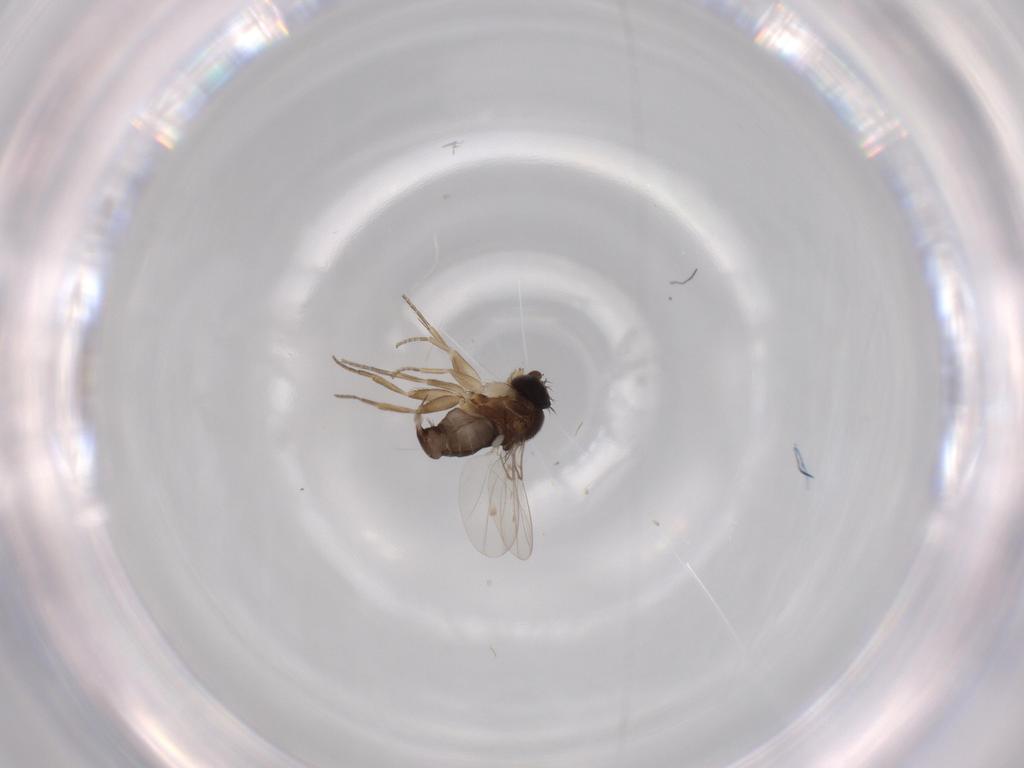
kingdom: Animalia
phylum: Arthropoda
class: Insecta
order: Diptera
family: Phoridae
